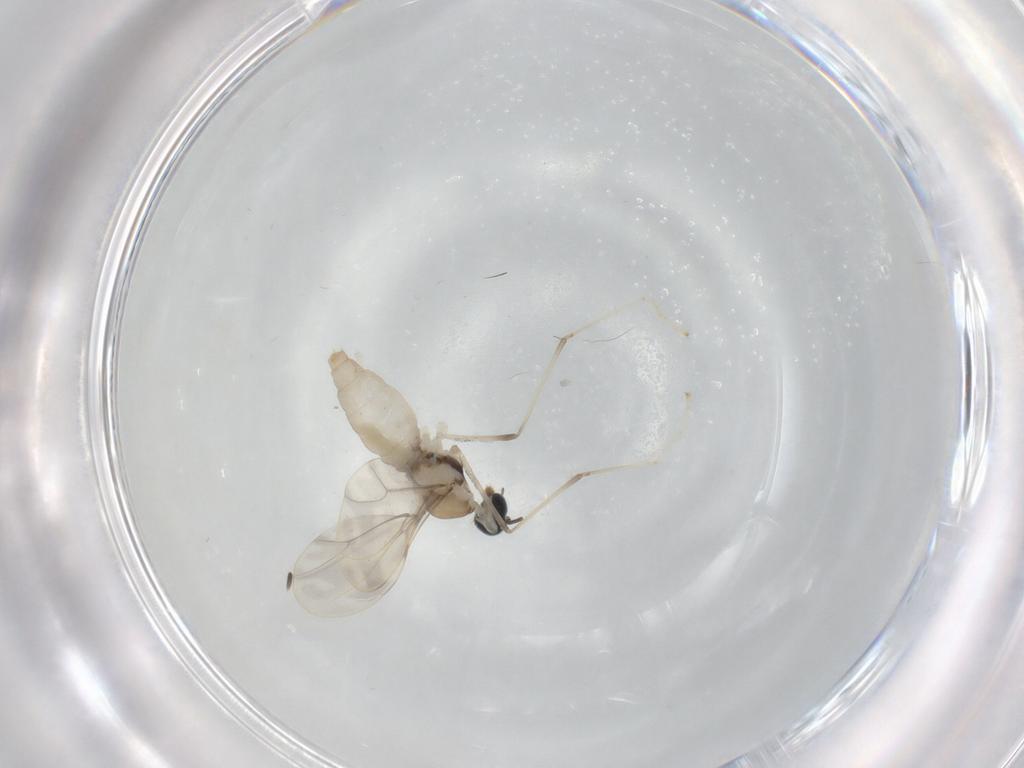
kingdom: Animalia
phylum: Arthropoda
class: Insecta
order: Diptera
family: Cecidomyiidae
